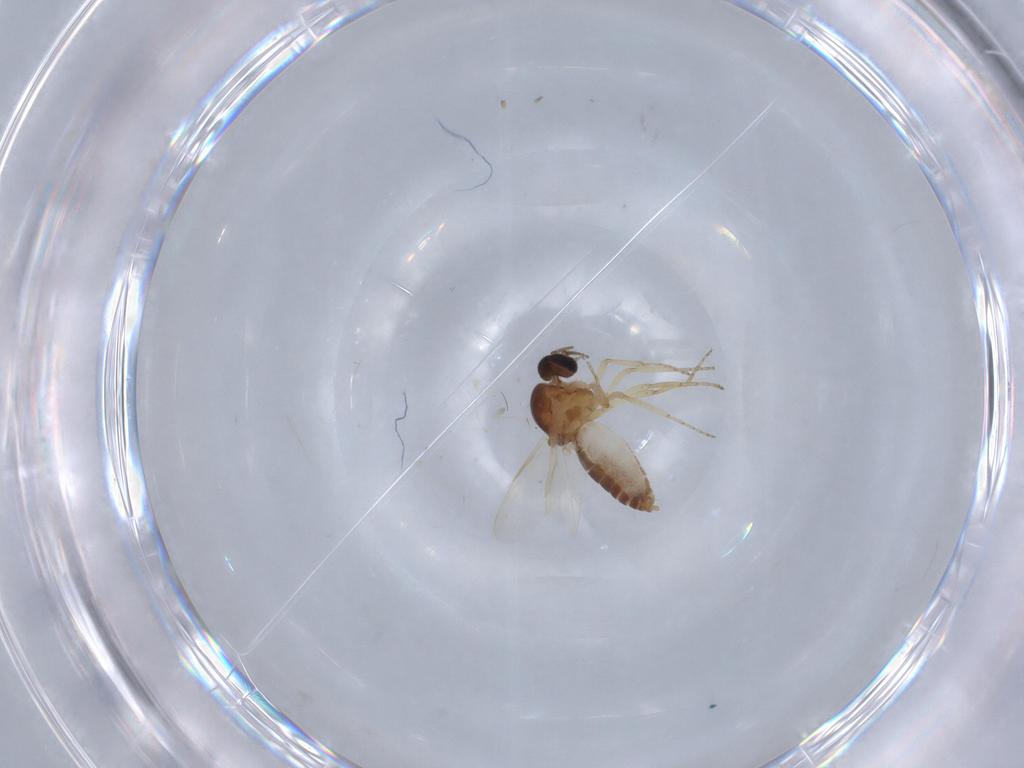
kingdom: Animalia
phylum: Arthropoda
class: Insecta
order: Diptera
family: Ceratopogonidae
